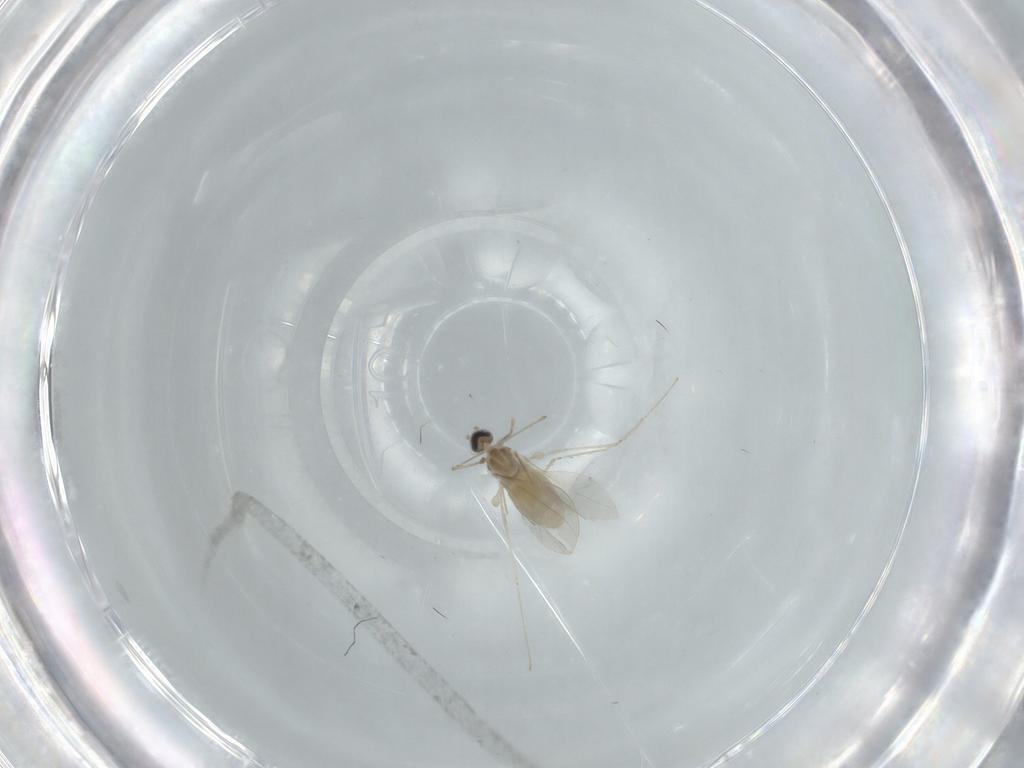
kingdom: Animalia
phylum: Arthropoda
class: Insecta
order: Diptera
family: Cecidomyiidae
